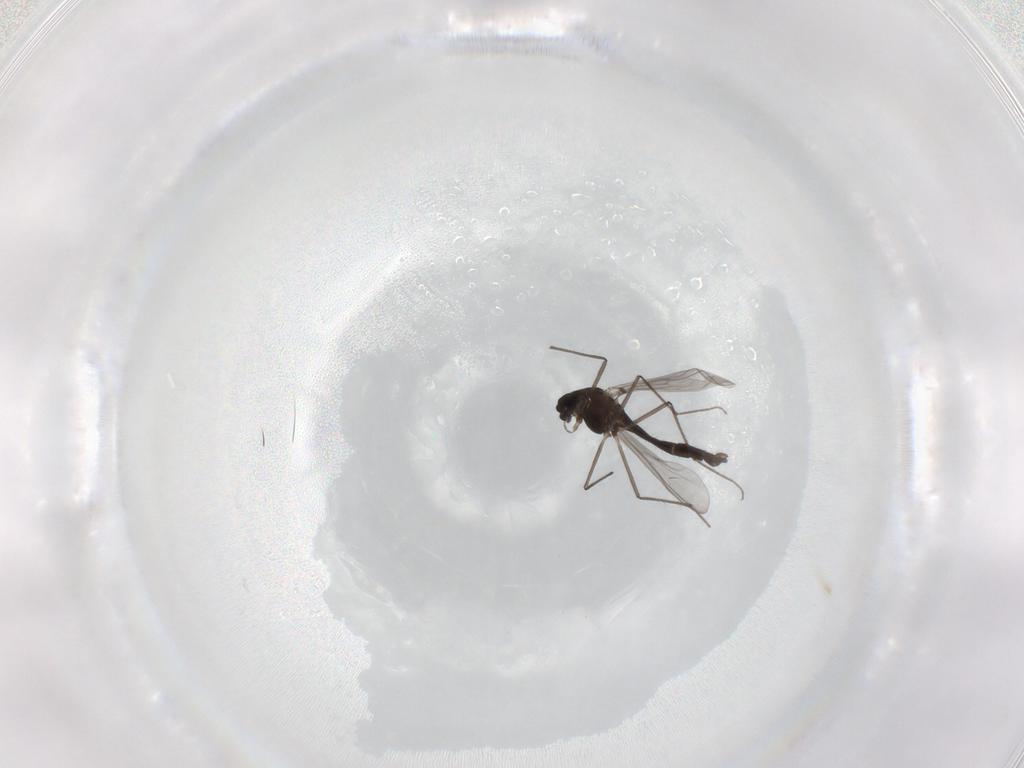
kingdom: Animalia
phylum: Arthropoda
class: Insecta
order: Diptera
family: Chironomidae
